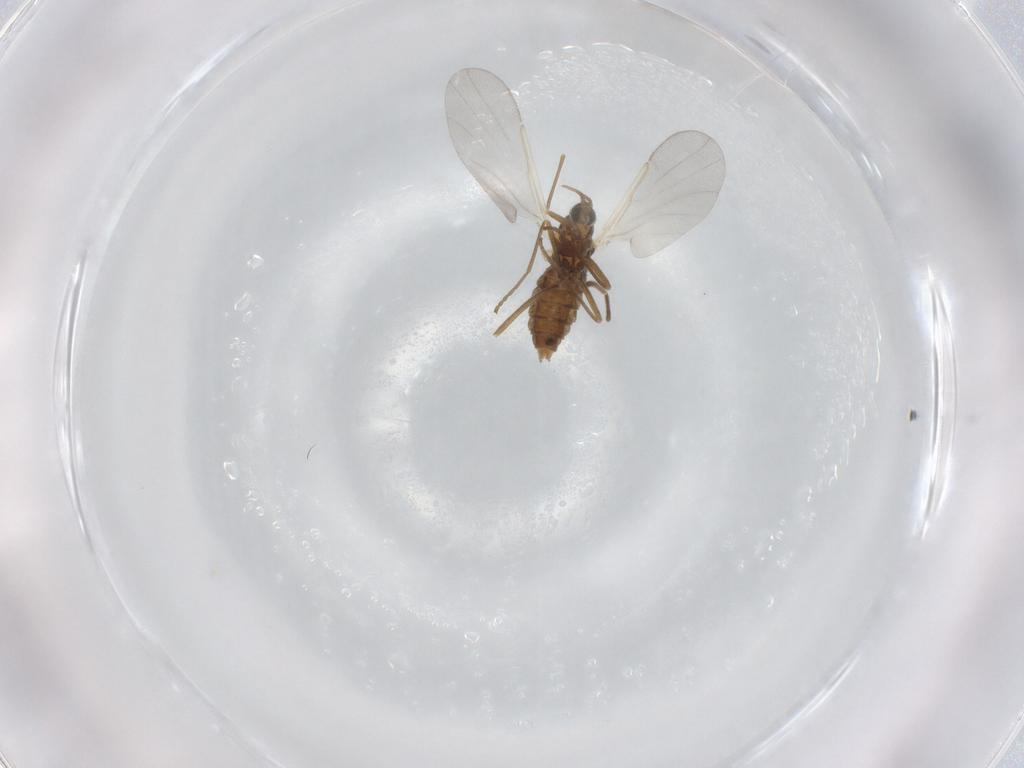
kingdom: Animalia
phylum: Arthropoda
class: Insecta
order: Diptera
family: Cecidomyiidae
